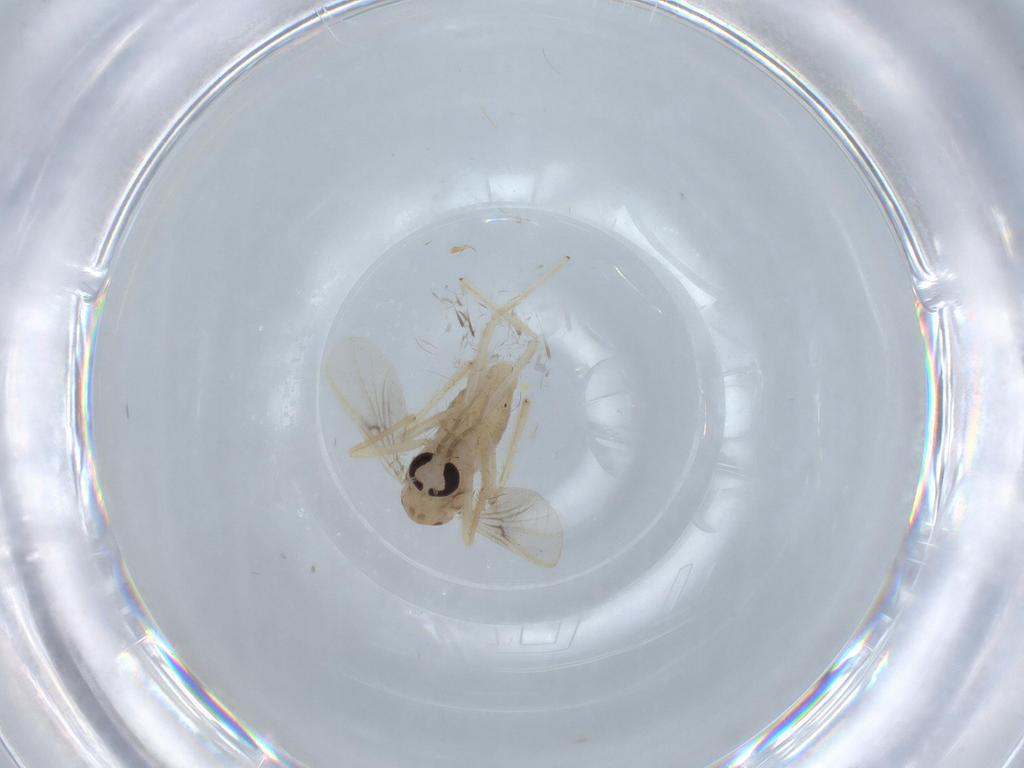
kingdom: Animalia
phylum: Arthropoda
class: Insecta
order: Diptera
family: Chironomidae
